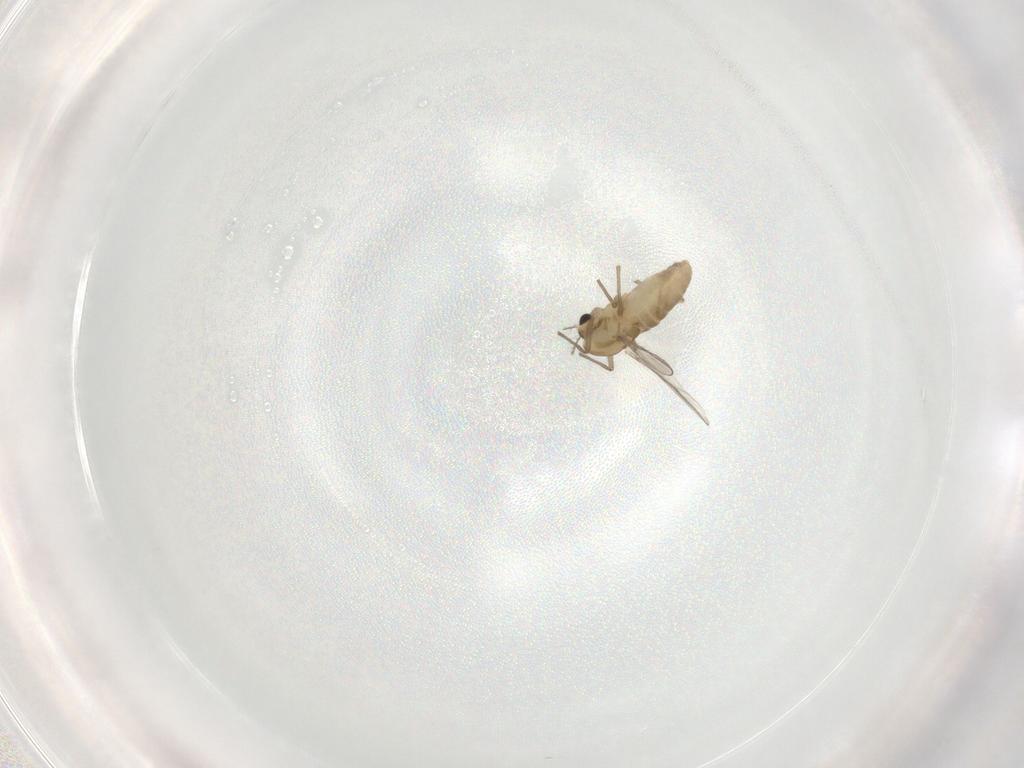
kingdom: Animalia
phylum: Arthropoda
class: Insecta
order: Diptera
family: Chironomidae
